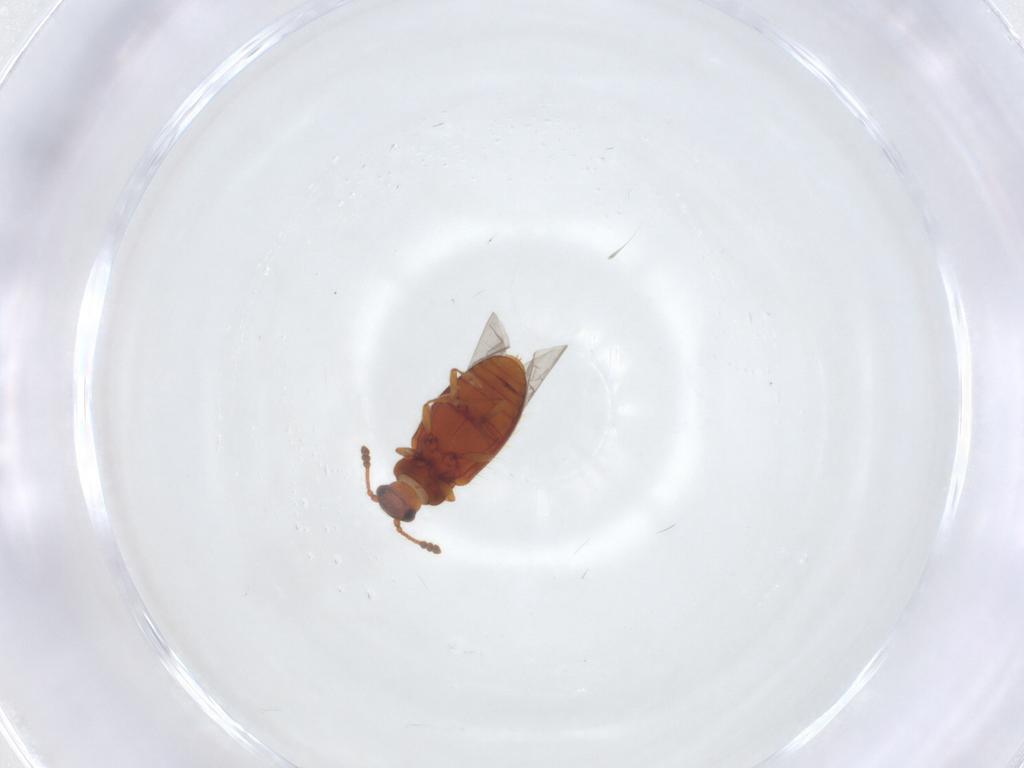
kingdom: Animalia
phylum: Arthropoda
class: Insecta
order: Coleoptera
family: Cryptophagidae
